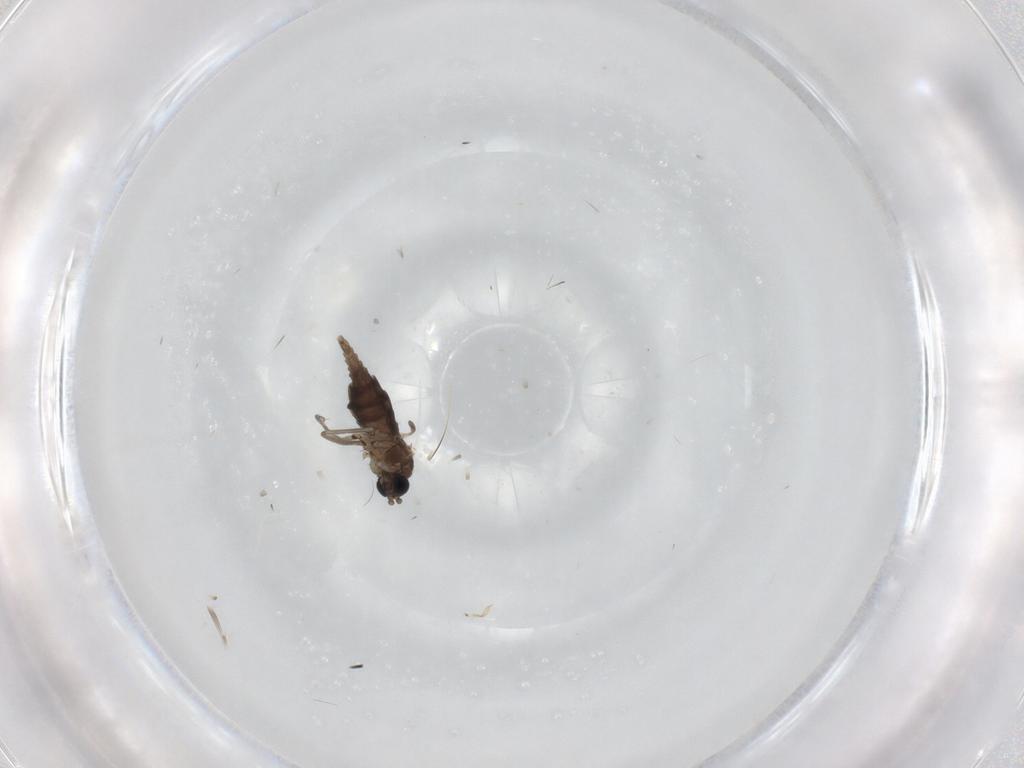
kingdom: Animalia
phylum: Arthropoda
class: Insecta
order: Diptera
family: Sciaridae
